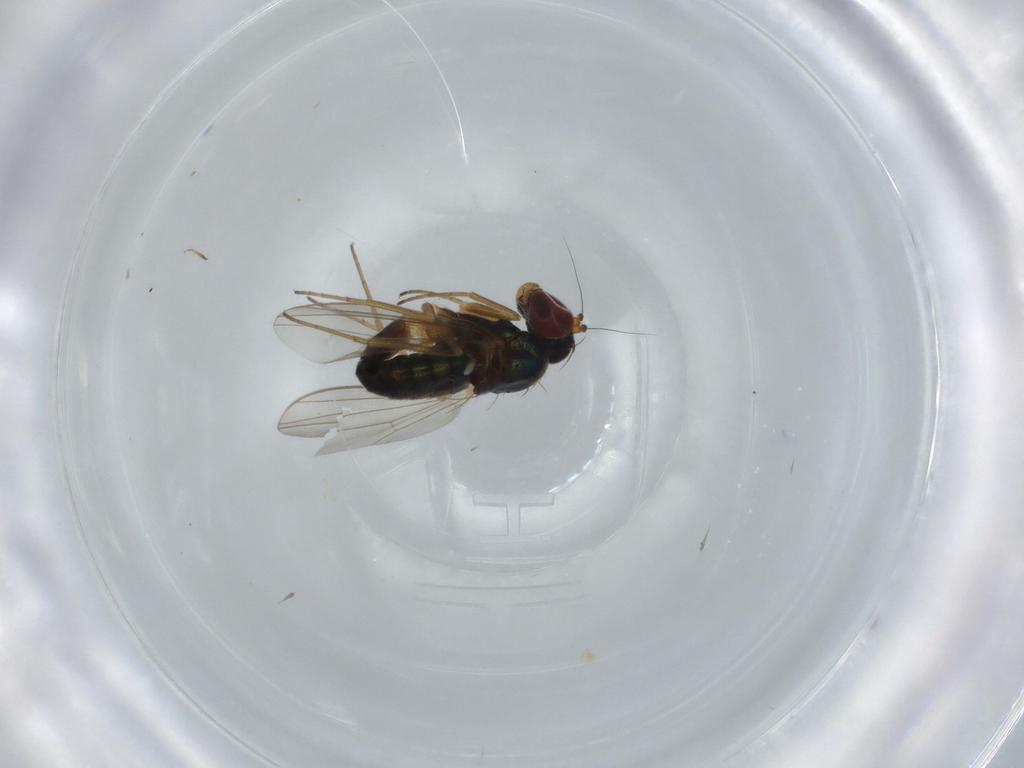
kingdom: Animalia
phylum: Arthropoda
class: Insecta
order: Diptera
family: Dolichopodidae
